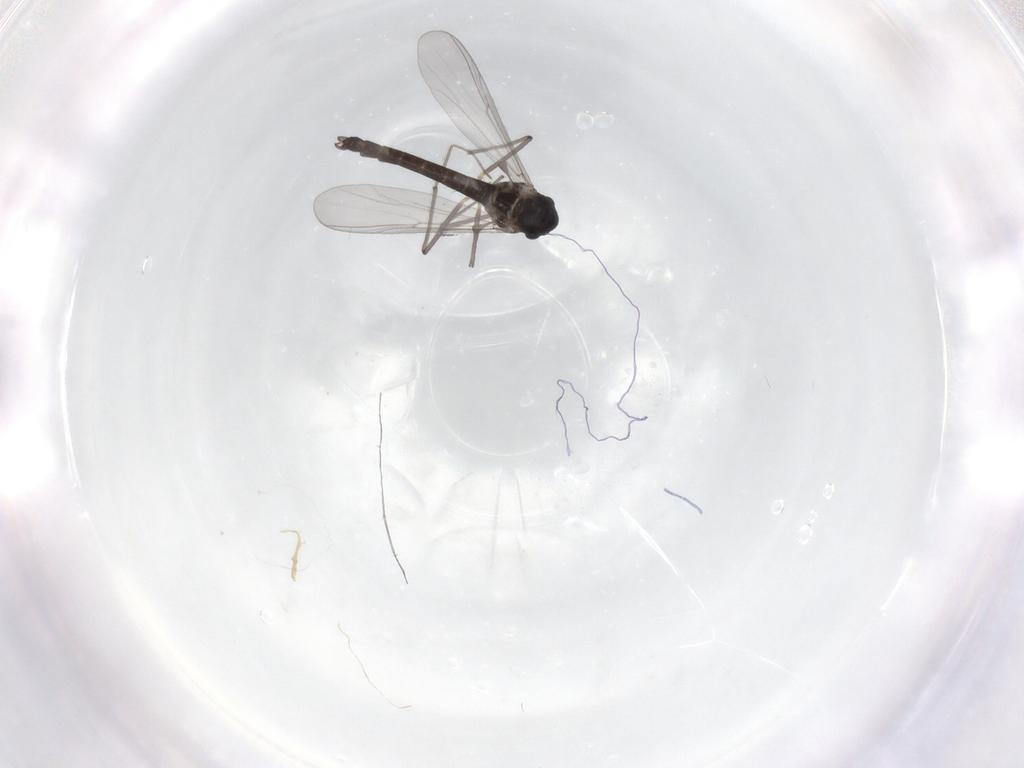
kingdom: Animalia
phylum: Arthropoda
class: Insecta
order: Diptera
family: Chironomidae
